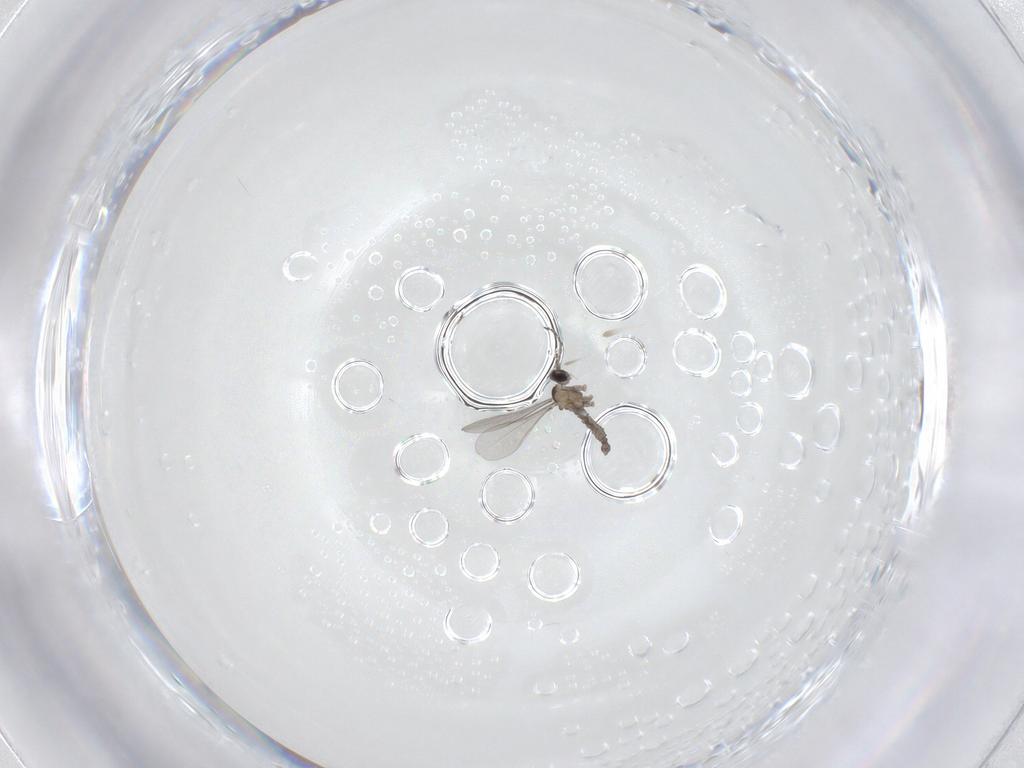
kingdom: Animalia
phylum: Arthropoda
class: Insecta
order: Diptera
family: Cecidomyiidae
